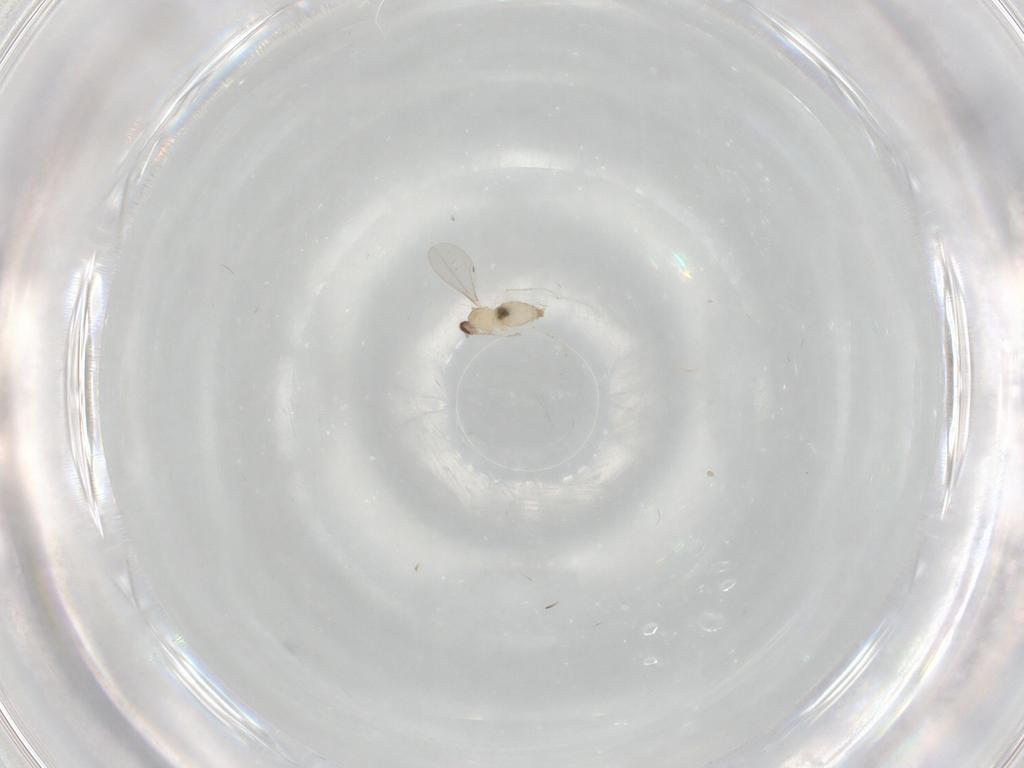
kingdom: Animalia
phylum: Arthropoda
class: Insecta
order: Diptera
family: Cecidomyiidae
